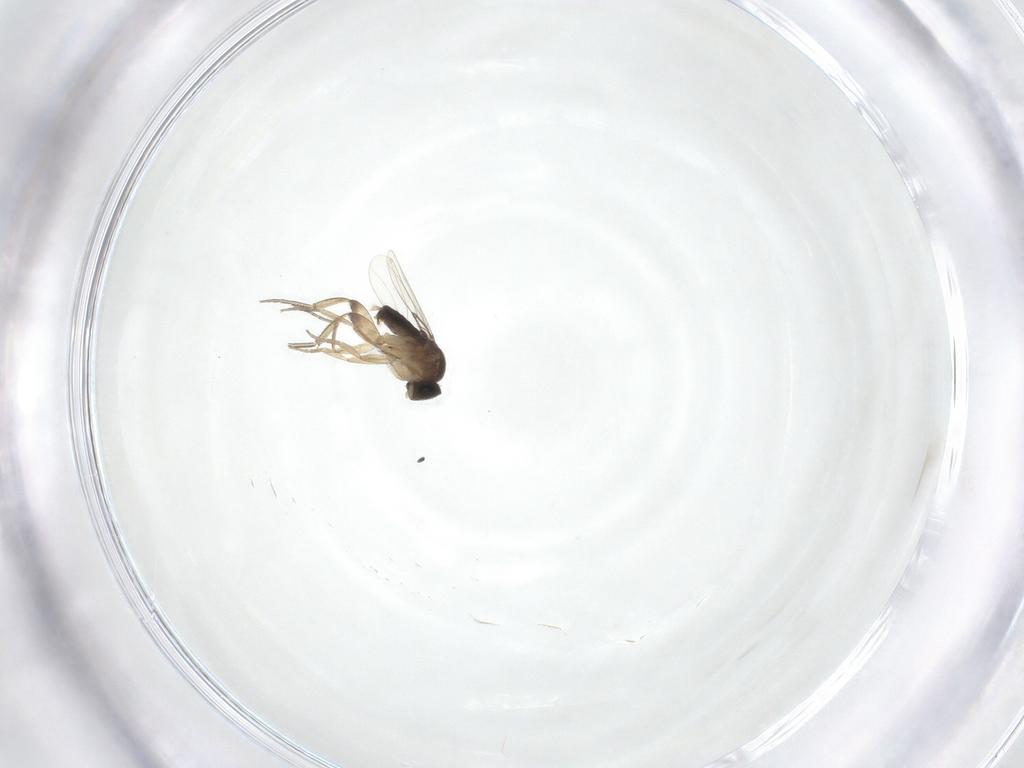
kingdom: Animalia
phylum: Arthropoda
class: Insecta
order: Diptera
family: Phoridae
